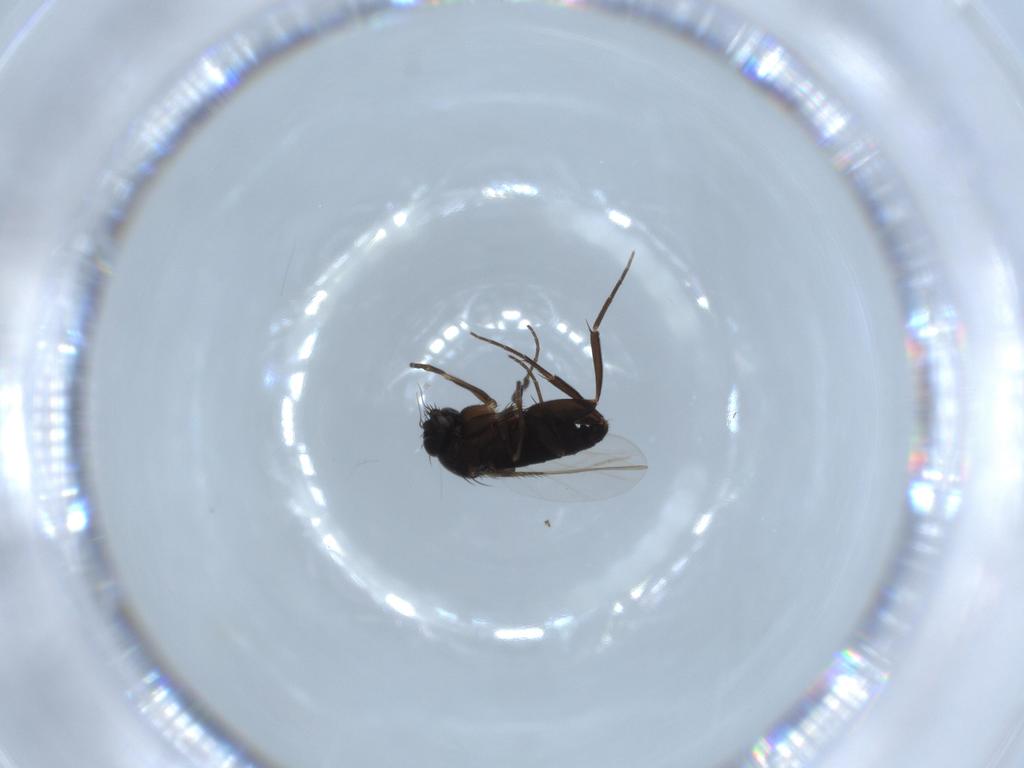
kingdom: Animalia
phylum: Arthropoda
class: Insecta
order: Diptera
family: Phoridae
